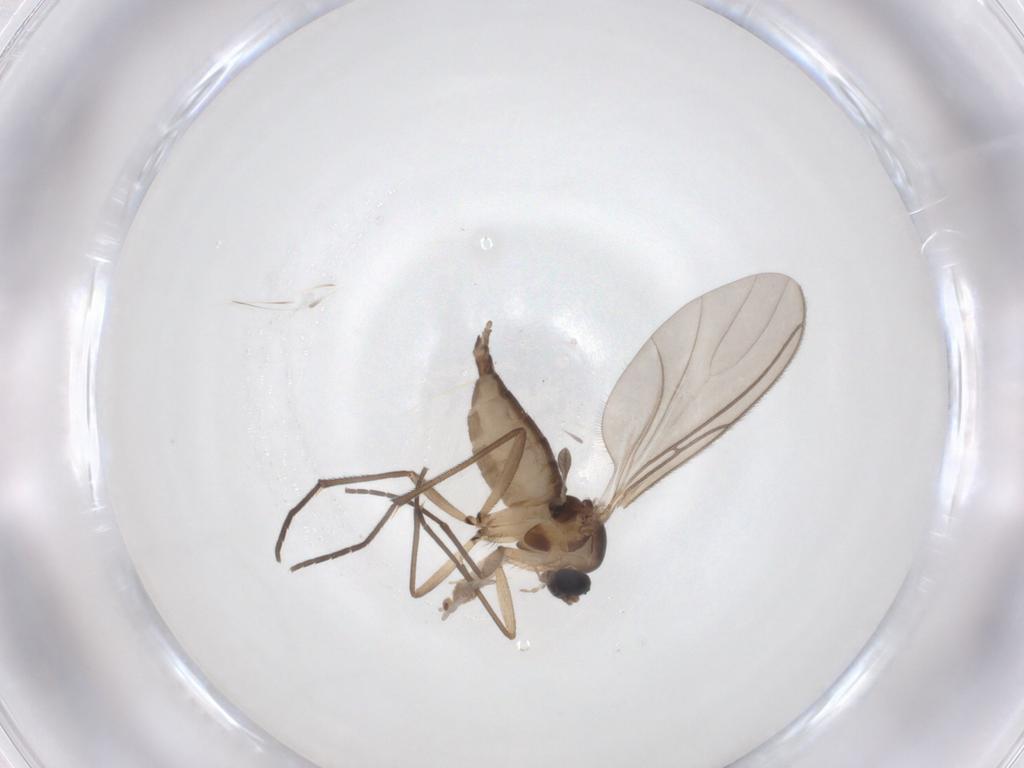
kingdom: Animalia
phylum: Arthropoda
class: Insecta
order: Diptera
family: Sciaridae
